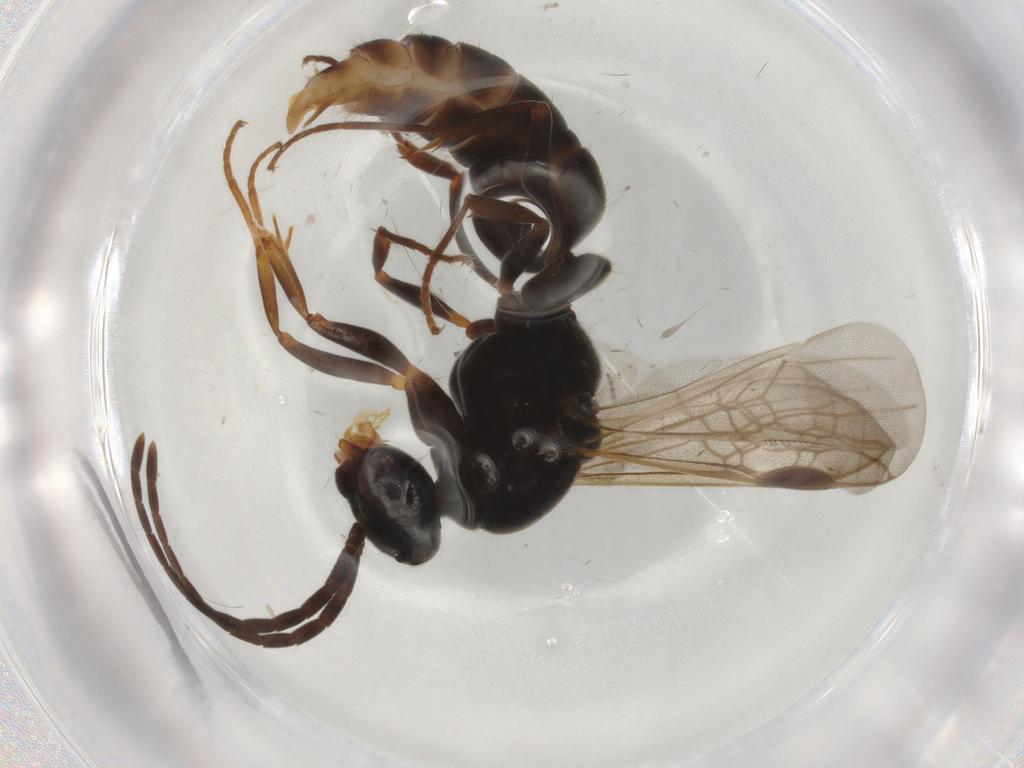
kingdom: Animalia
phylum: Arthropoda
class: Insecta
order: Hymenoptera
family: Formicidae
